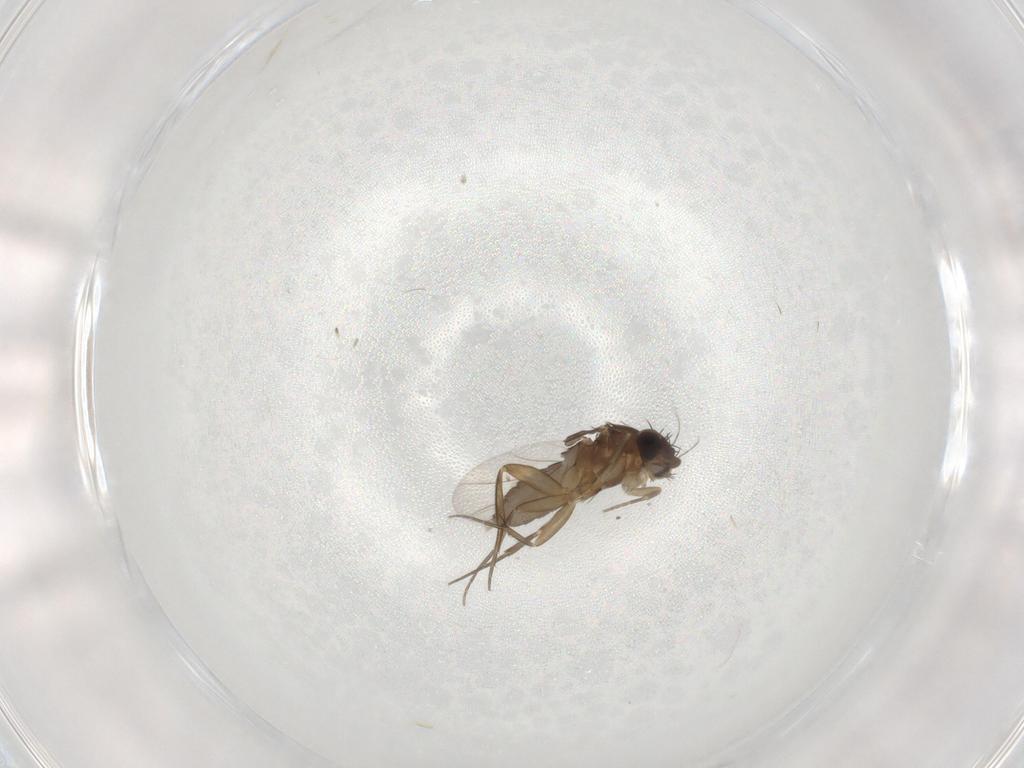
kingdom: Animalia
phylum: Arthropoda
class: Insecta
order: Diptera
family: Phoridae
